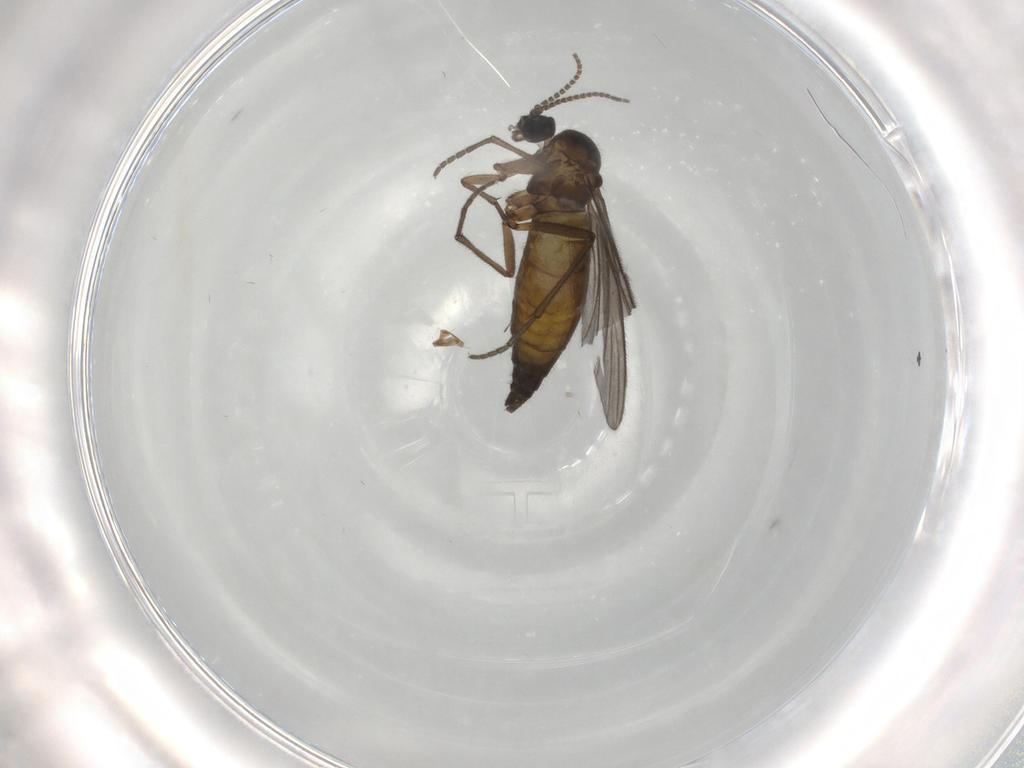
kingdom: Animalia
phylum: Arthropoda
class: Insecta
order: Diptera
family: Sciaridae
